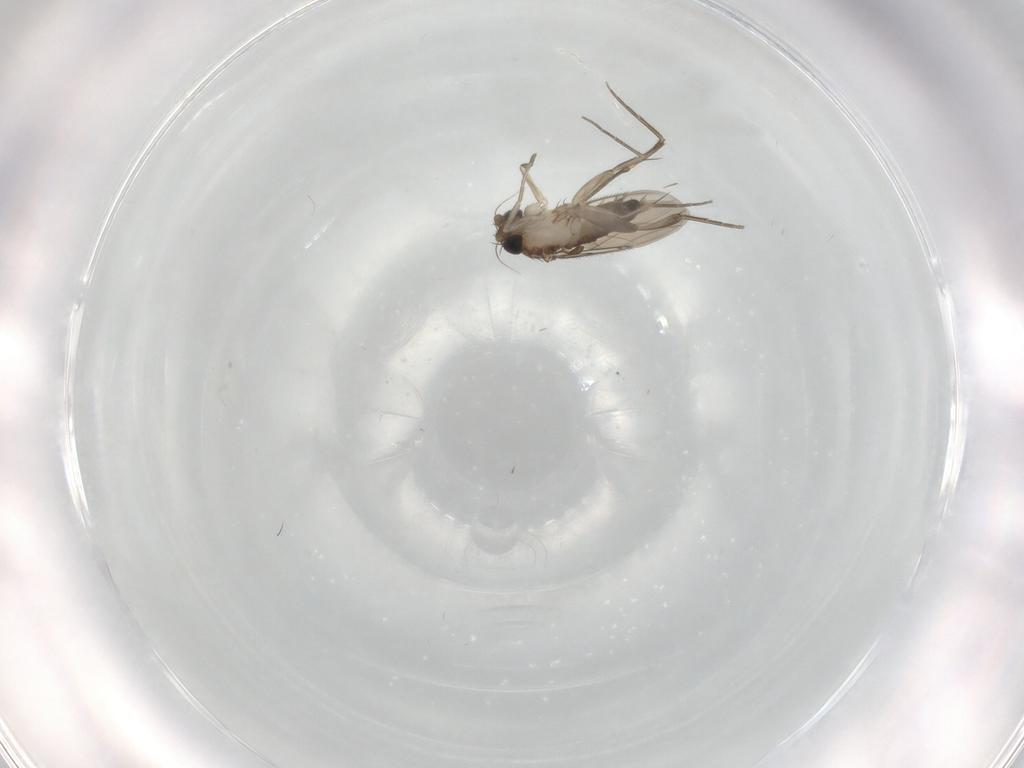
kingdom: Animalia
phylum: Arthropoda
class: Insecta
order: Diptera
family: Phoridae
